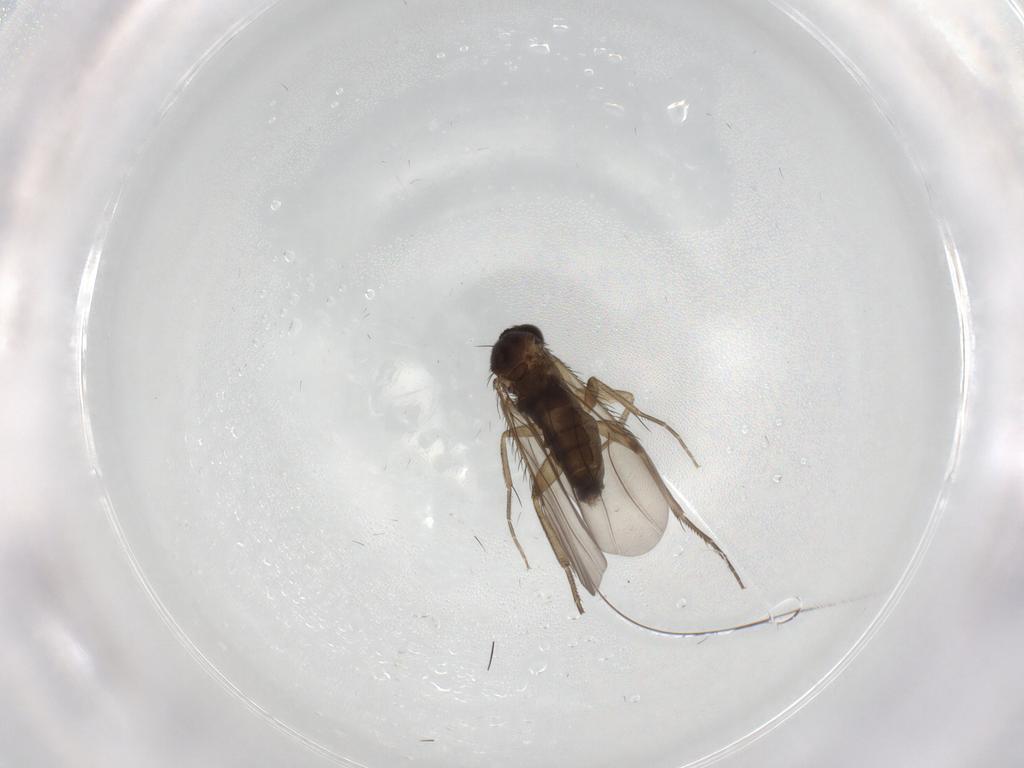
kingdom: Animalia
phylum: Arthropoda
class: Insecta
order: Diptera
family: Phoridae
